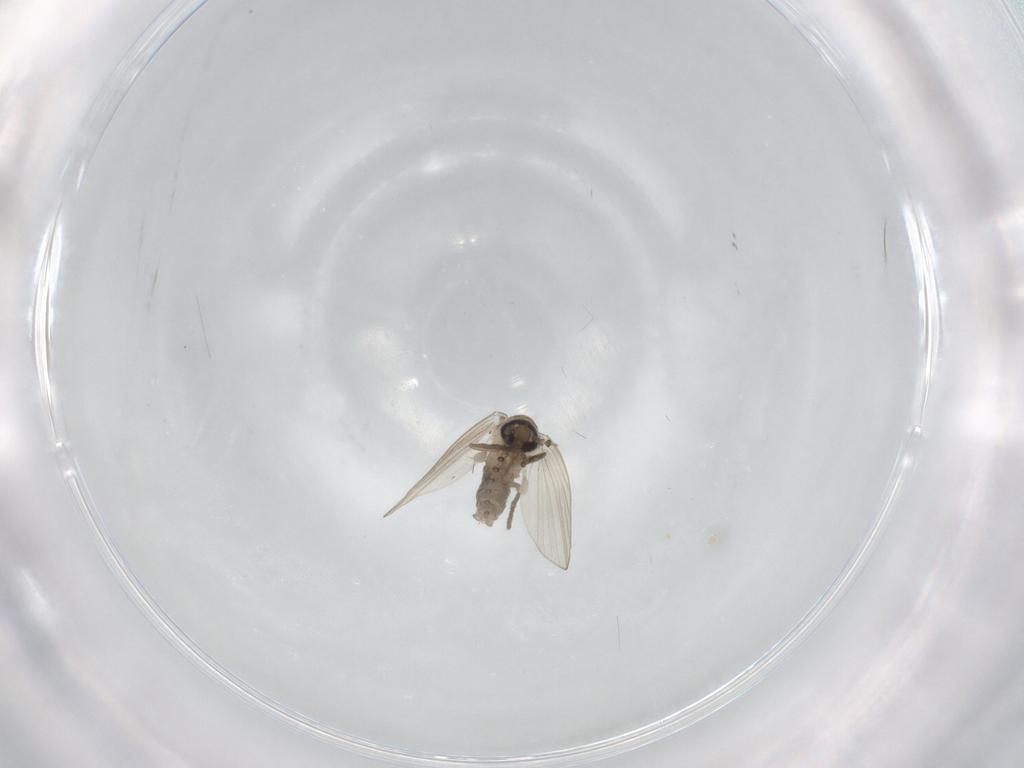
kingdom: Animalia
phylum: Arthropoda
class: Insecta
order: Diptera
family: Psychodidae
